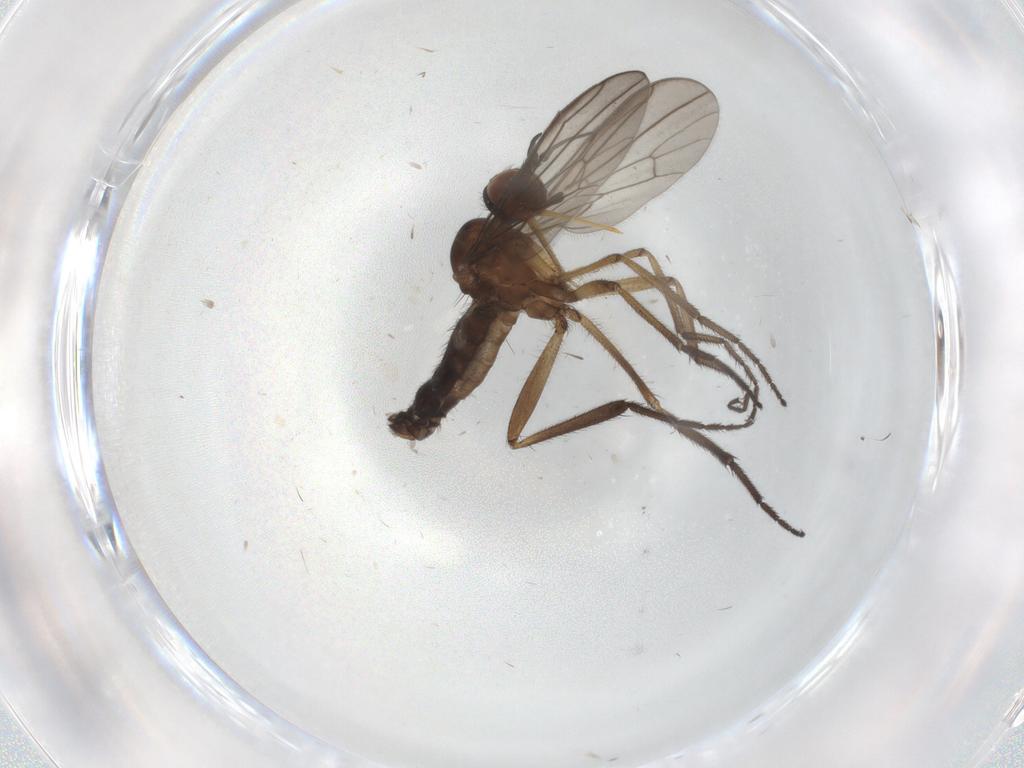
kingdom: Animalia
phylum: Arthropoda
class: Insecta
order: Diptera
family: Empididae
